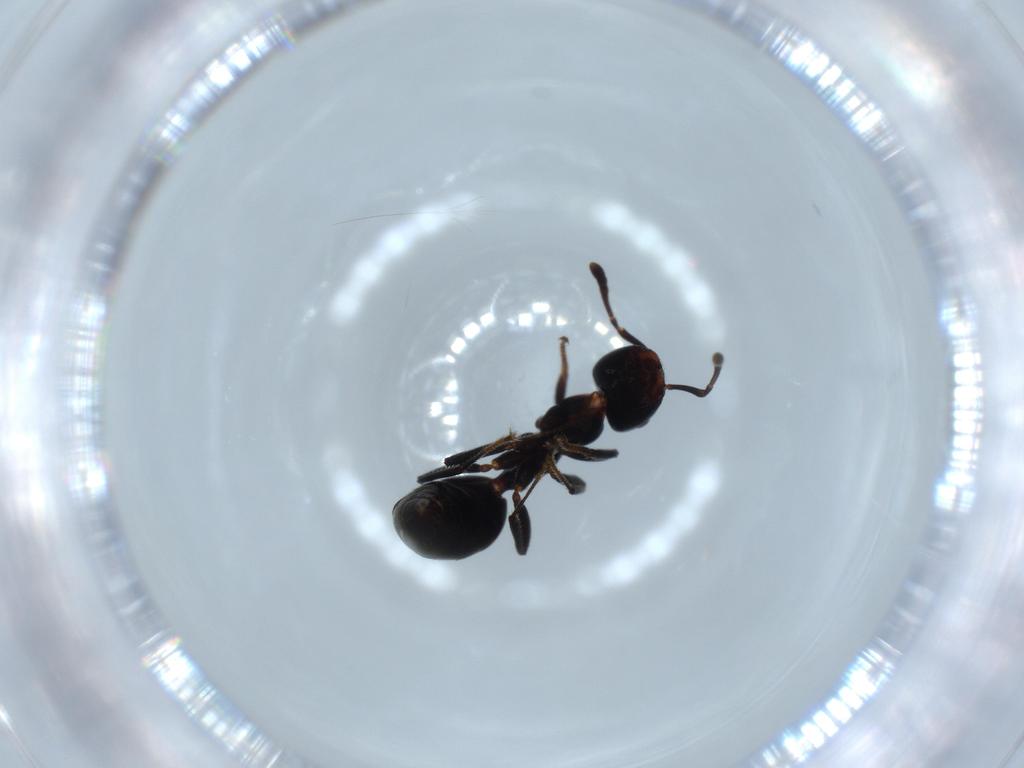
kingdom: Animalia
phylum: Arthropoda
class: Insecta
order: Hymenoptera
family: Formicidae
